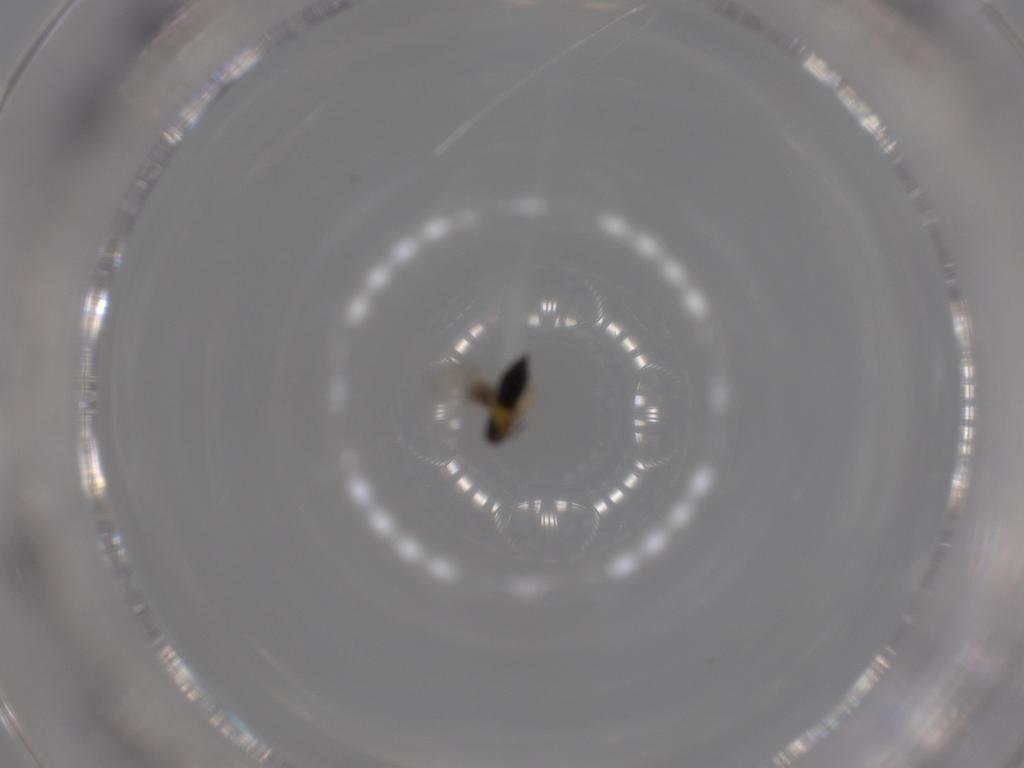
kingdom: Animalia
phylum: Arthropoda
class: Insecta
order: Hymenoptera
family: Signiphoridae
